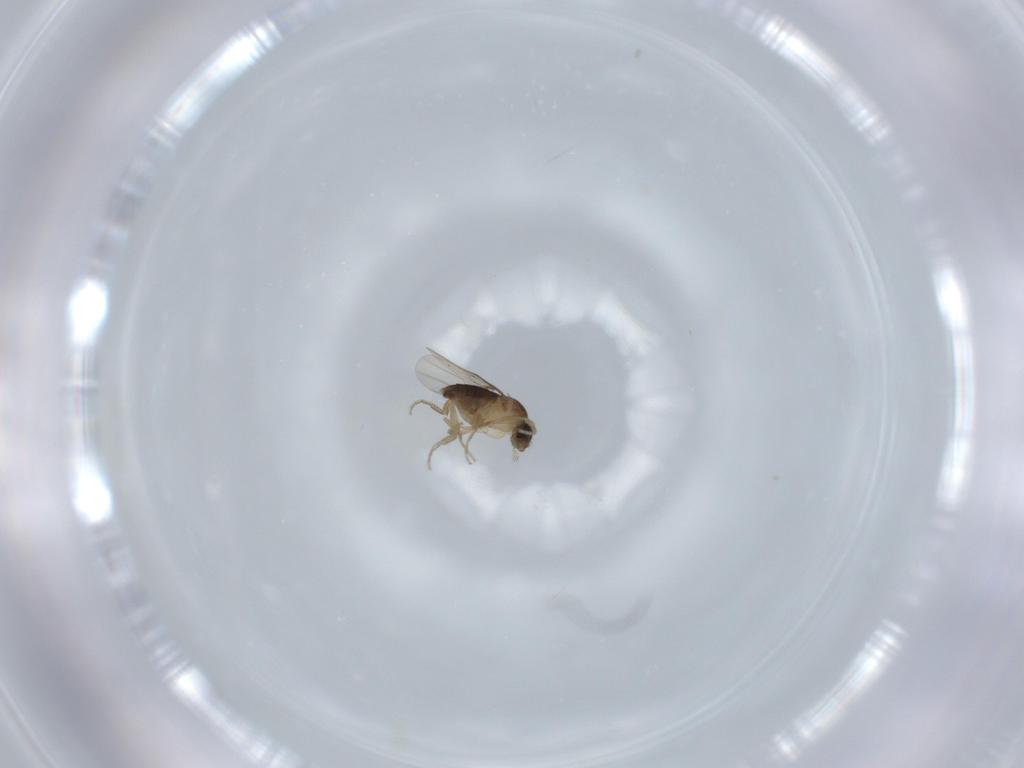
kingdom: Animalia
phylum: Arthropoda
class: Insecta
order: Diptera
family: Phoridae
